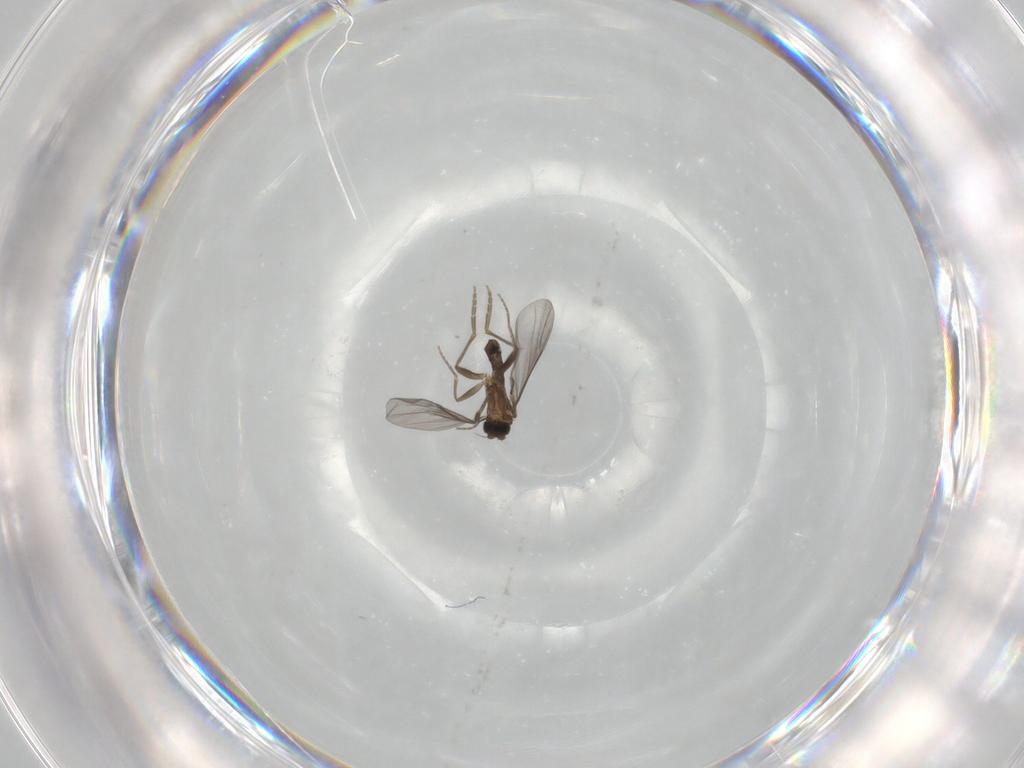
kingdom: Animalia
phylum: Arthropoda
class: Insecta
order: Diptera
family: Phoridae
